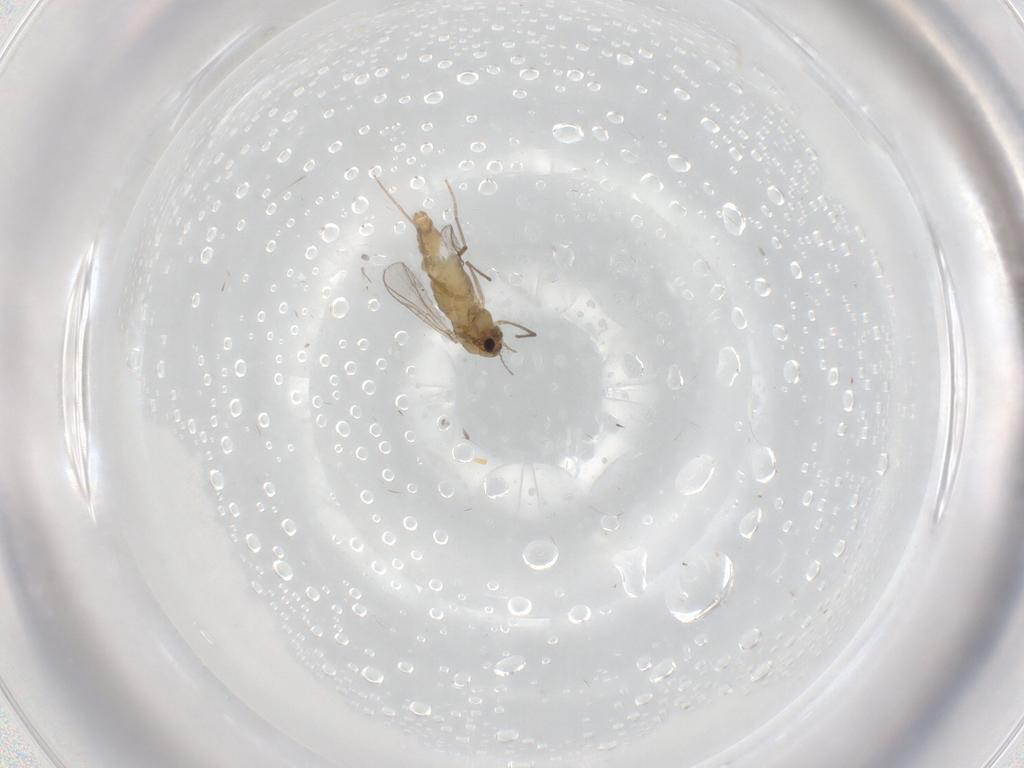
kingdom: Animalia
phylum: Arthropoda
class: Insecta
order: Diptera
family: Chironomidae
